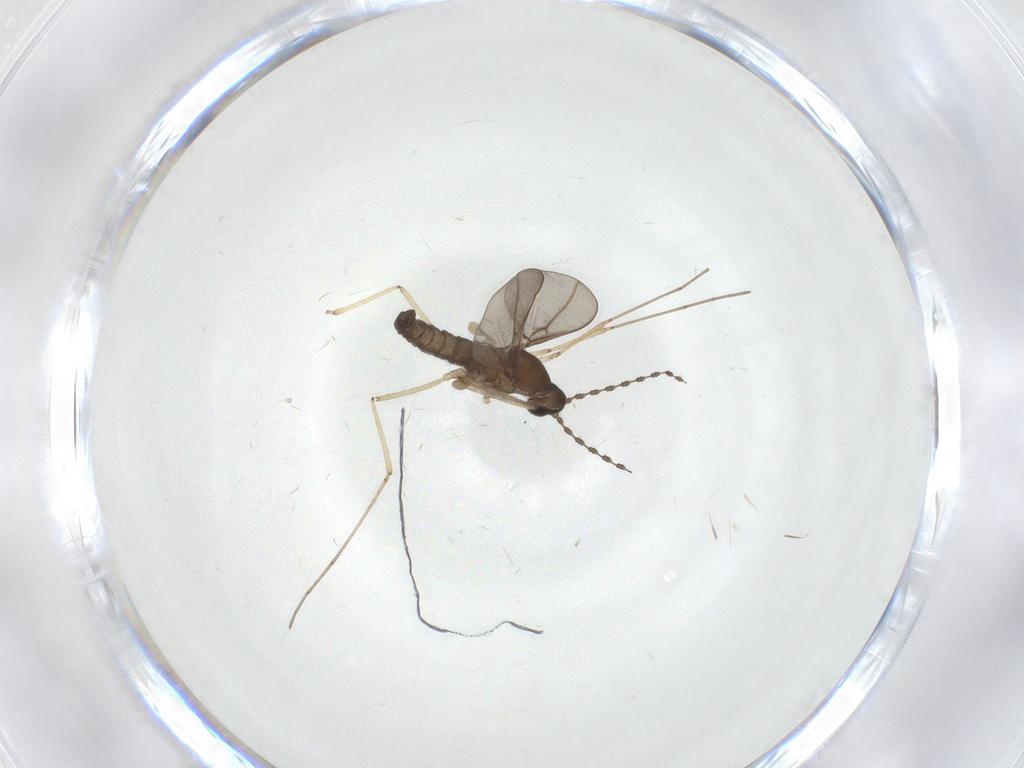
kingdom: Animalia
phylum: Arthropoda
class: Insecta
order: Diptera
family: Cecidomyiidae
